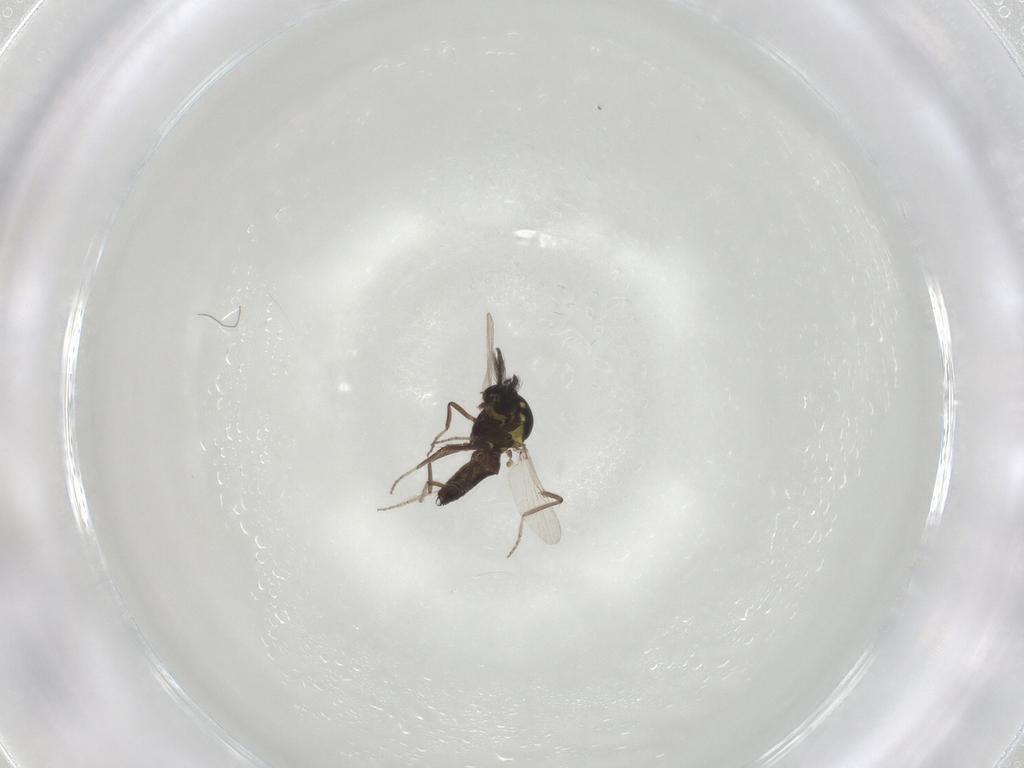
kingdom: Animalia
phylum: Arthropoda
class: Insecta
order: Diptera
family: Ceratopogonidae
